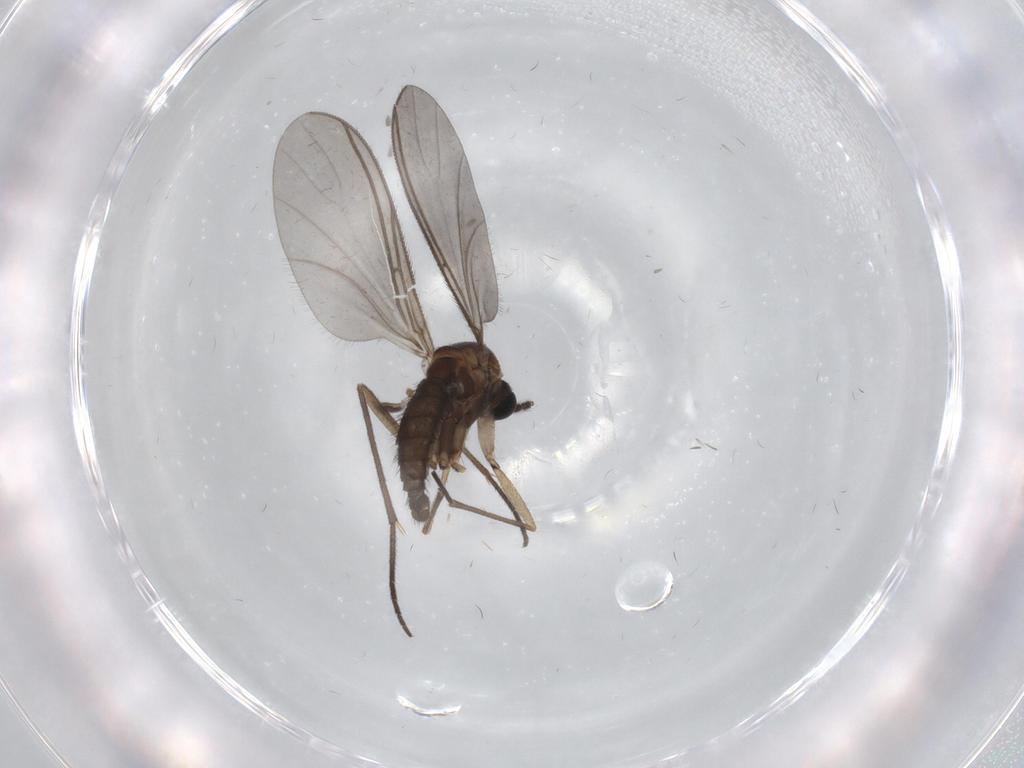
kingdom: Animalia
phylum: Arthropoda
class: Insecta
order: Diptera
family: Sciaridae
